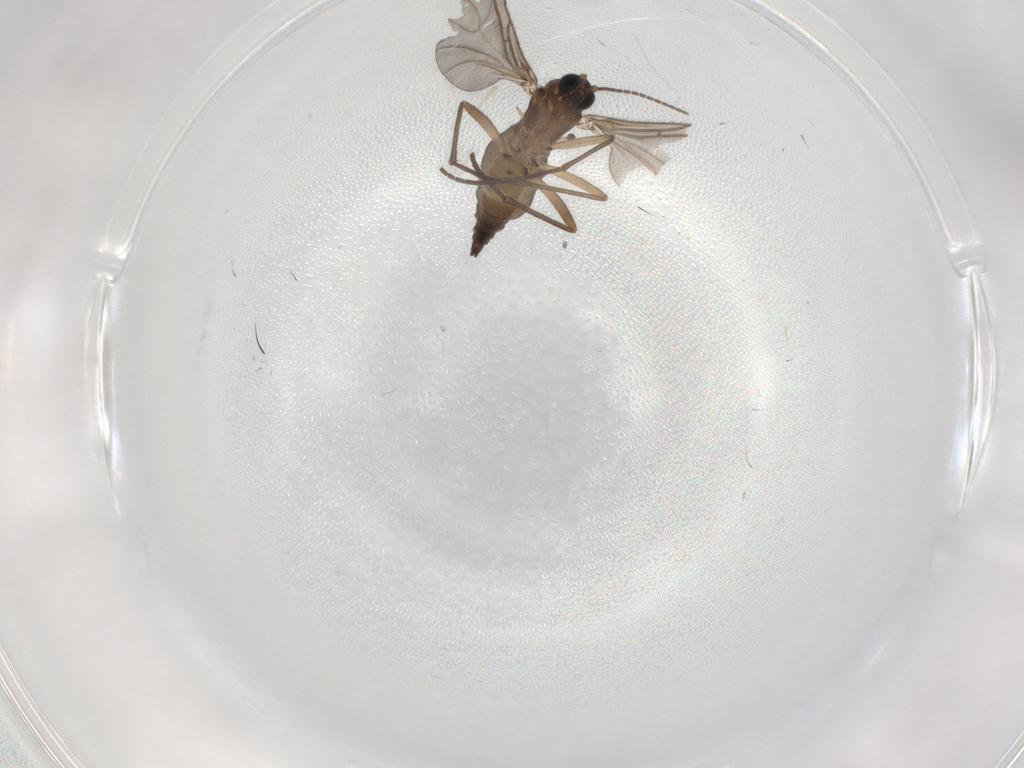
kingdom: Animalia
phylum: Arthropoda
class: Insecta
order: Diptera
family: Sciaridae
